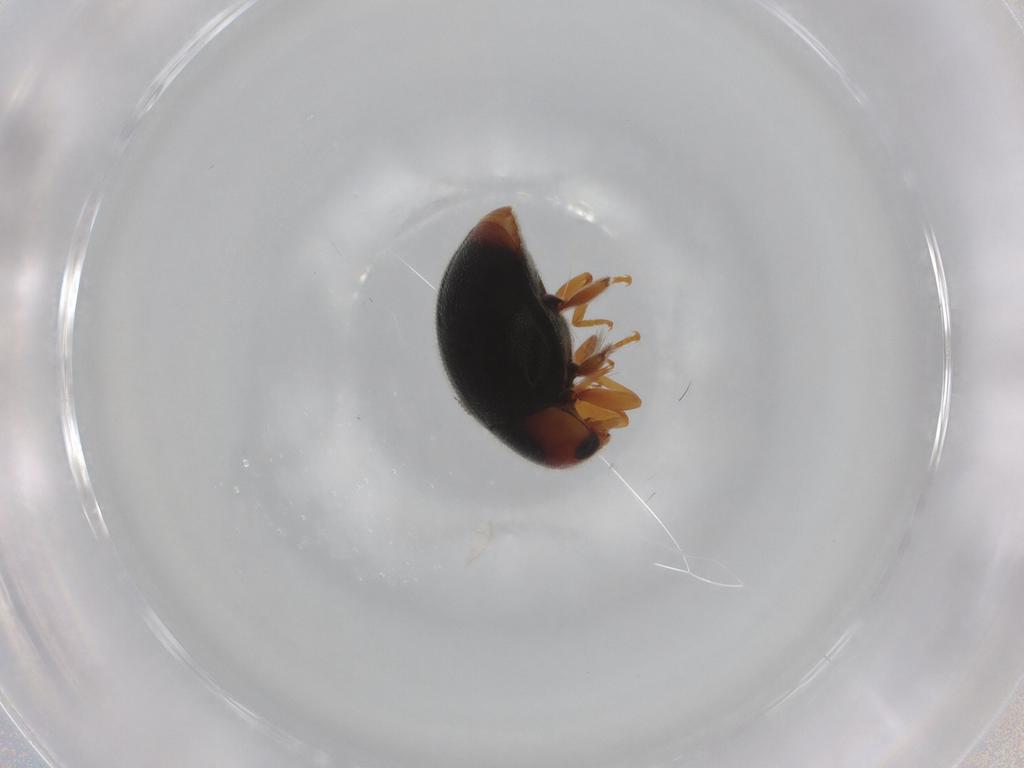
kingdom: Animalia
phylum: Arthropoda
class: Insecta
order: Coleoptera
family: Coccinellidae
